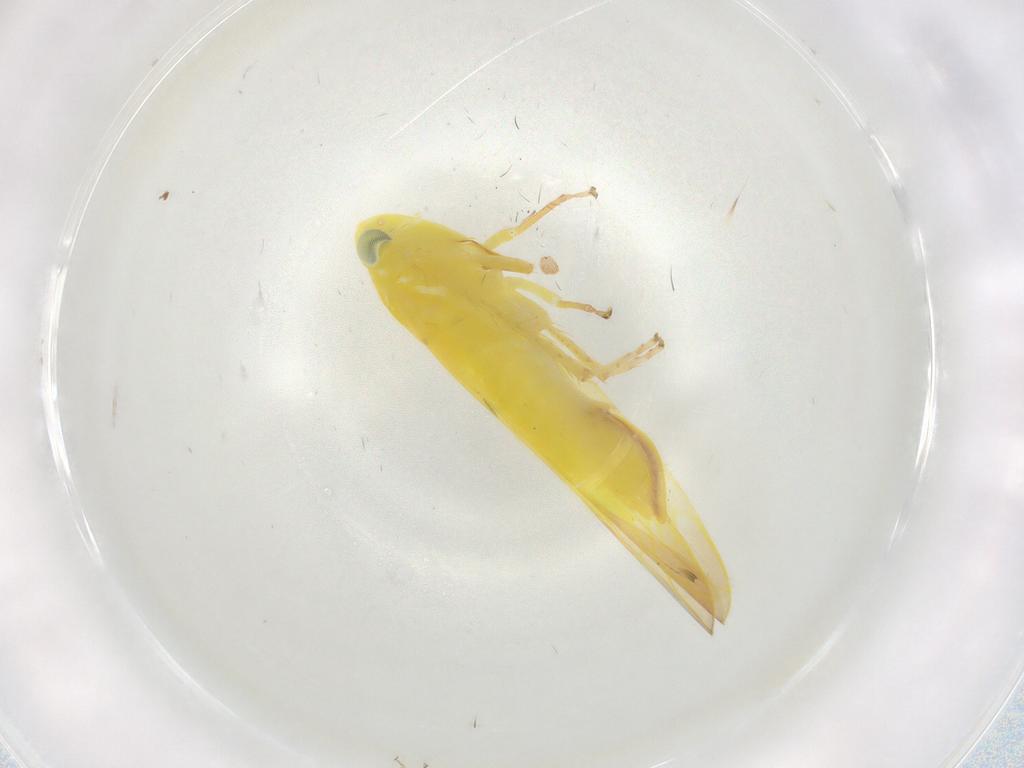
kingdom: Animalia
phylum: Arthropoda
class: Insecta
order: Hemiptera
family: Cicadellidae
